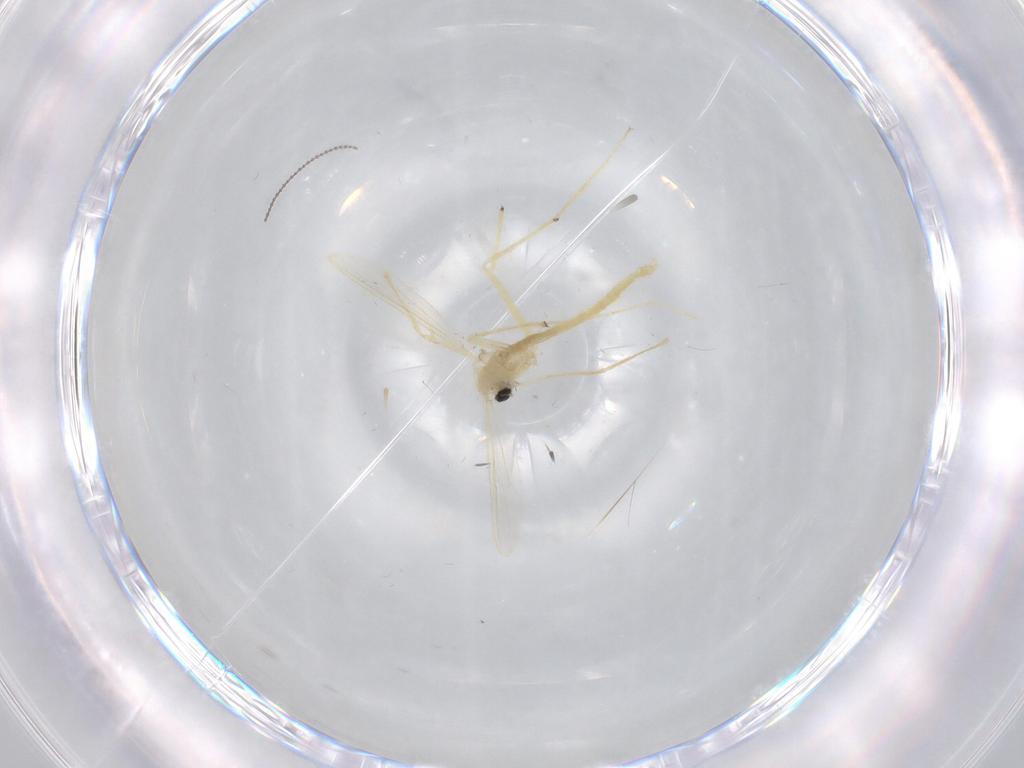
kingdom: Animalia
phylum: Arthropoda
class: Insecta
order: Diptera
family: Chironomidae
